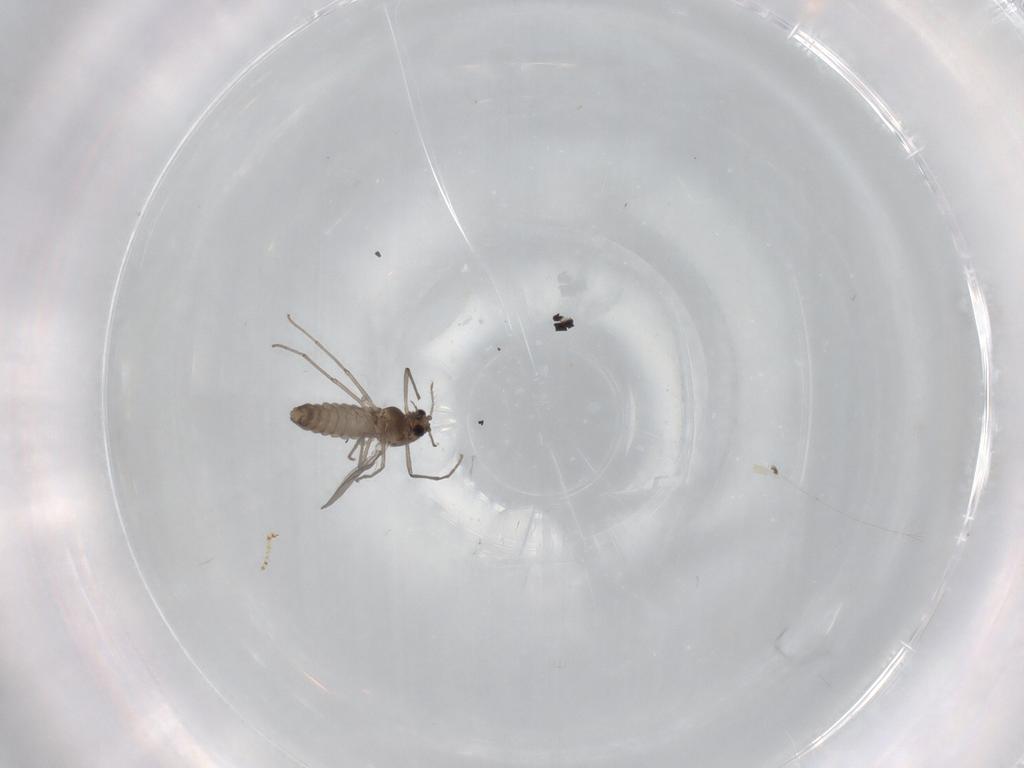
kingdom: Animalia
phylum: Arthropoda
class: Insecta
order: Diptera
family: Chironomidae
